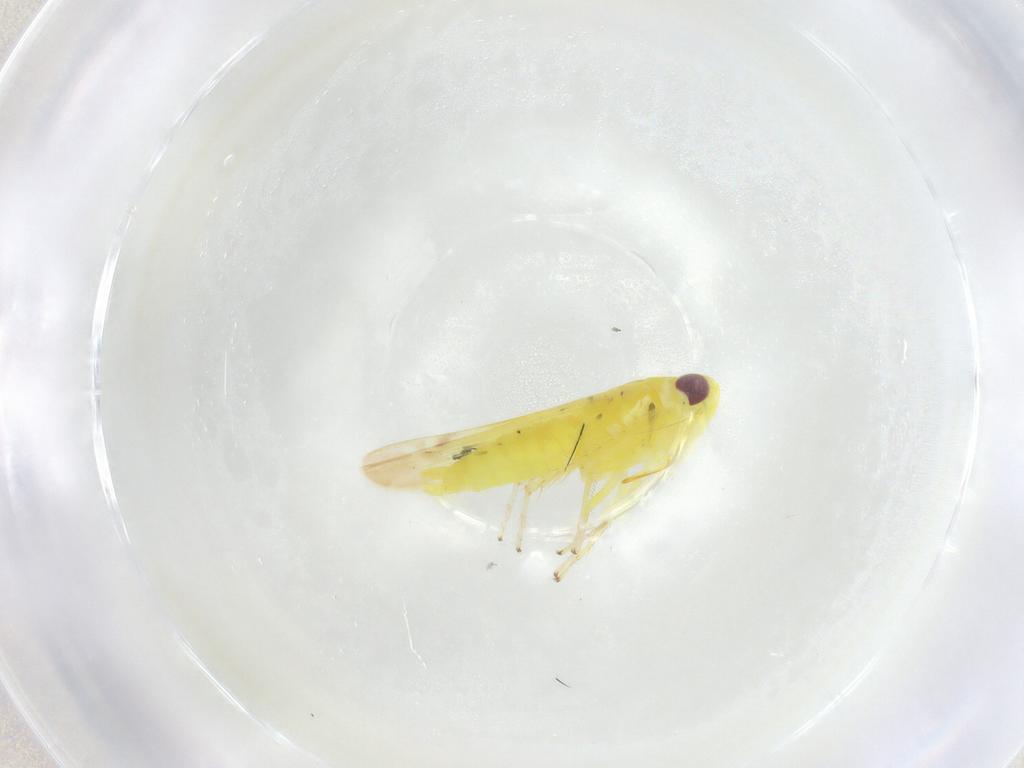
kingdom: Animalia
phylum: Arthropoda
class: Insecta
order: Hemiptera
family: Cicadellidae
